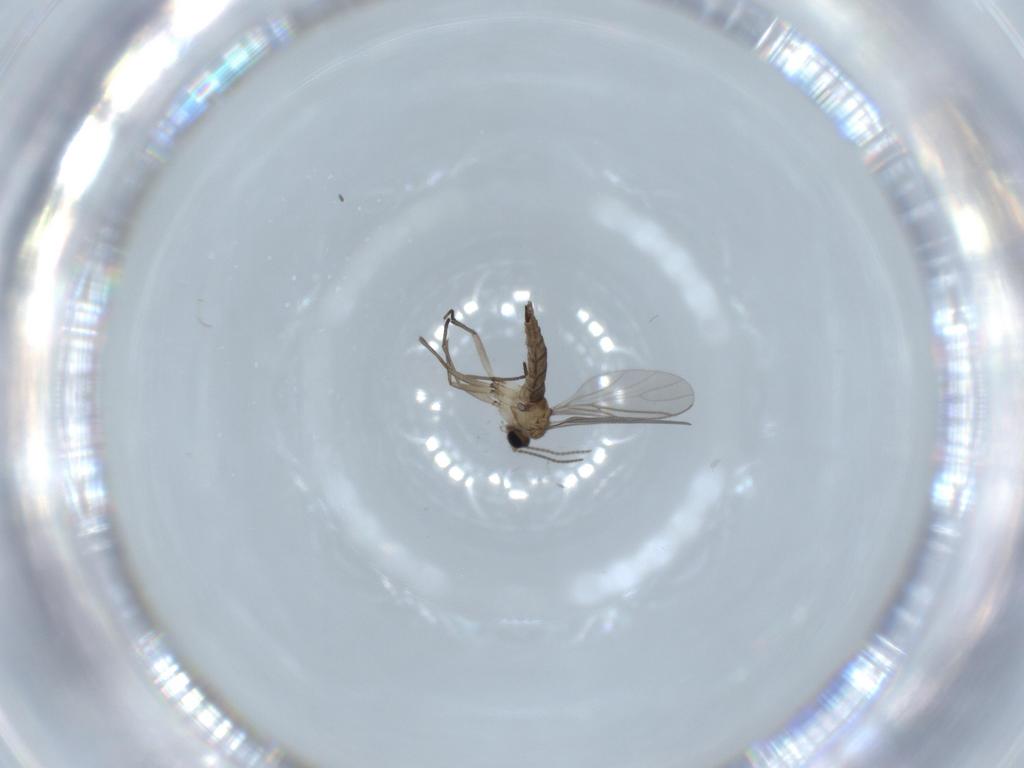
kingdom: Animalia
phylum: Arthropoda
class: Insecta
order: Diptera
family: Sciaridae
